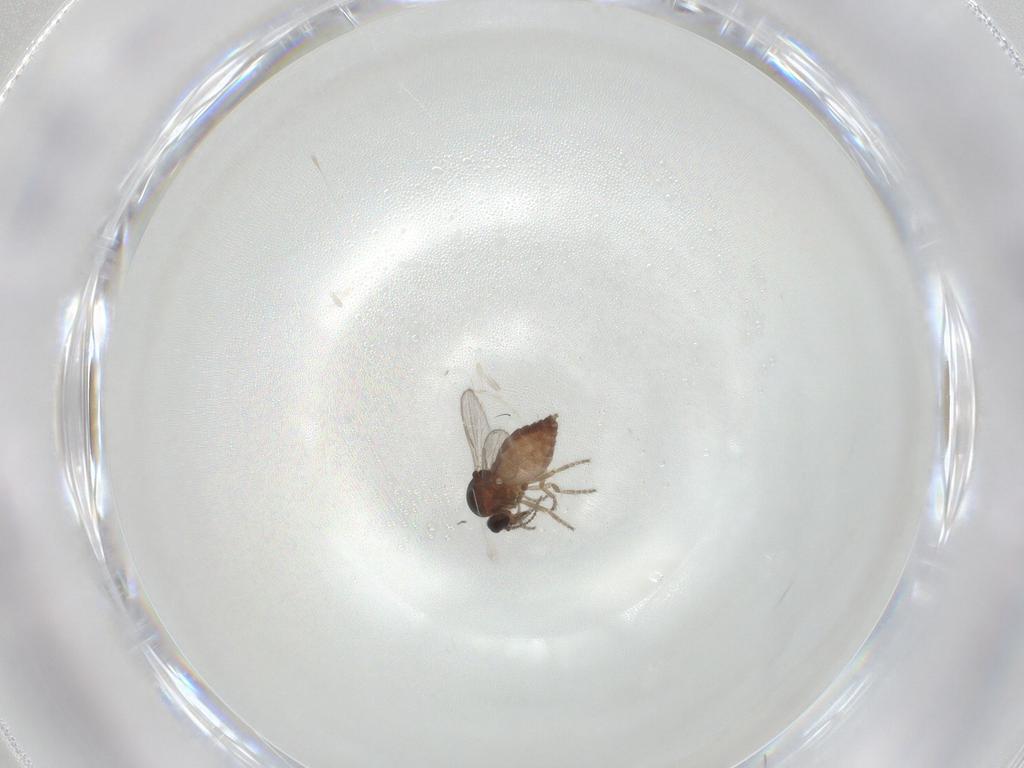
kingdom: Animalia
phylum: Arthropoda
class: Insecta
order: Diptera
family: Ceratopogonidae
